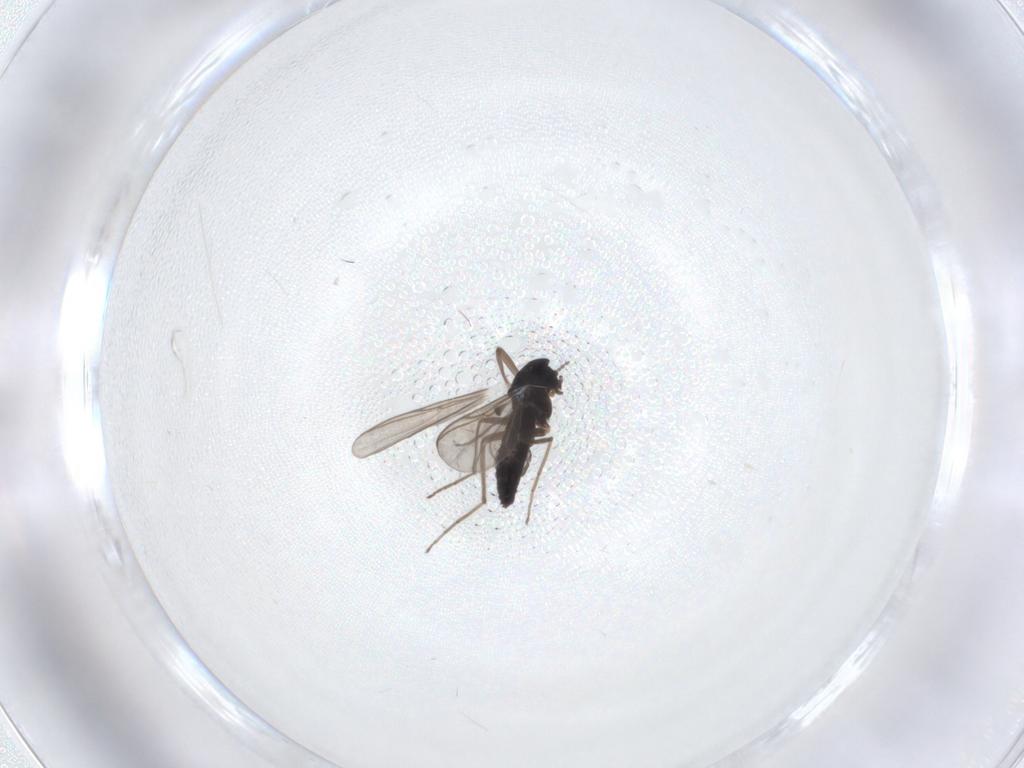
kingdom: Animalia
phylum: Arthropoda
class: Insecta
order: Diptera
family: Chironomidae
